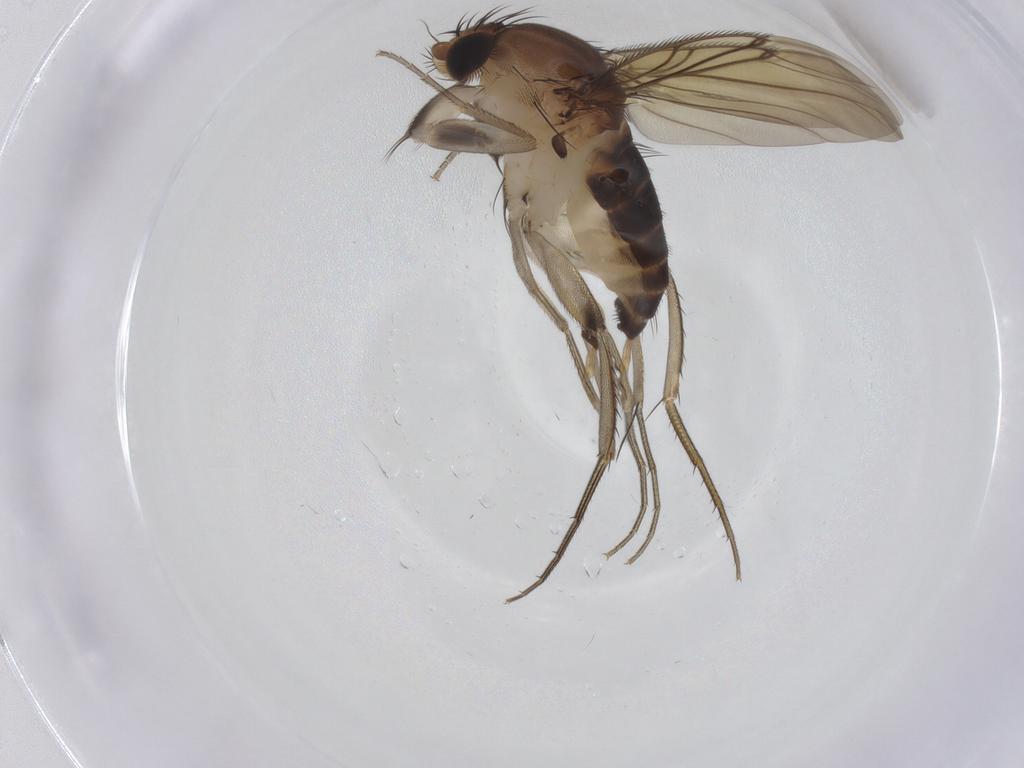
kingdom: Animalia
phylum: Arthropoda
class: Insecta
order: Diptera
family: Phoridae
